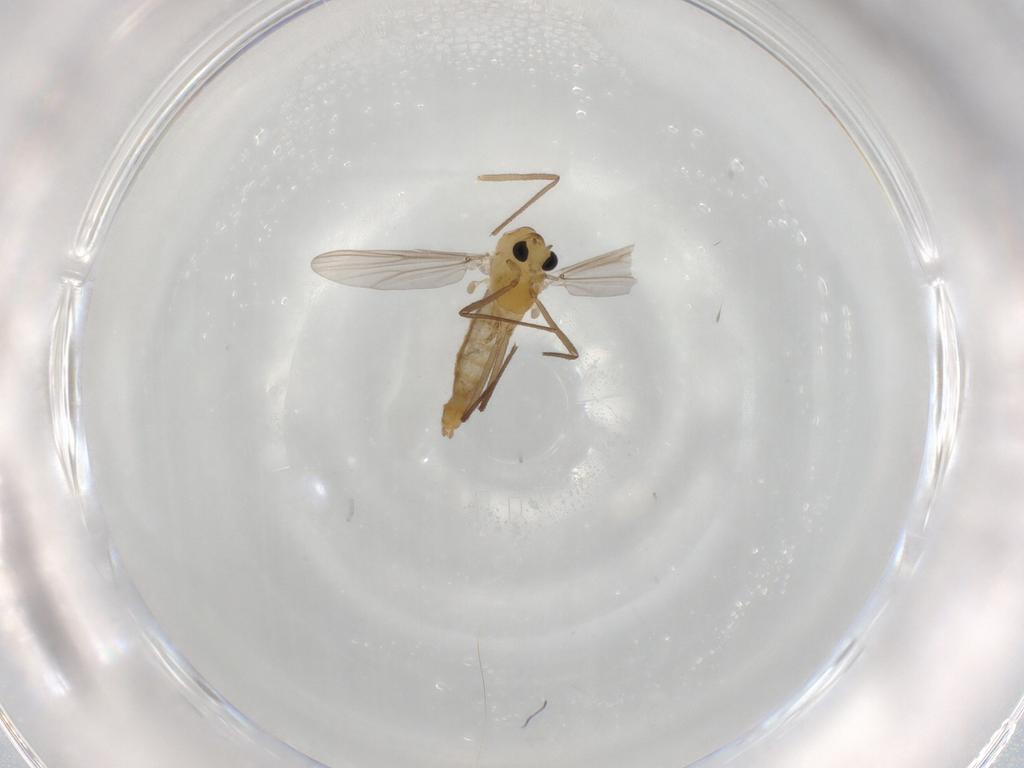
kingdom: Animalia
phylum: Arthropoda
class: Insecta
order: Diptera
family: Chironomidae
